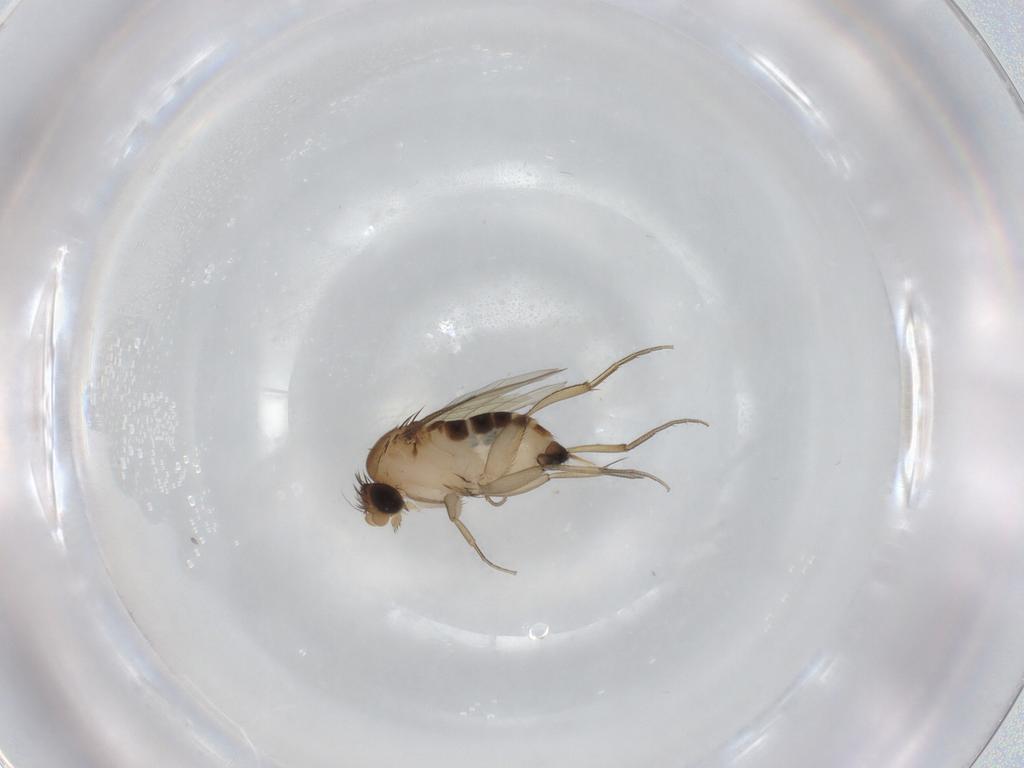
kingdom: Animalia
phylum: Arthropoda
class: Insecta
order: Diptera
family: Phoridae
